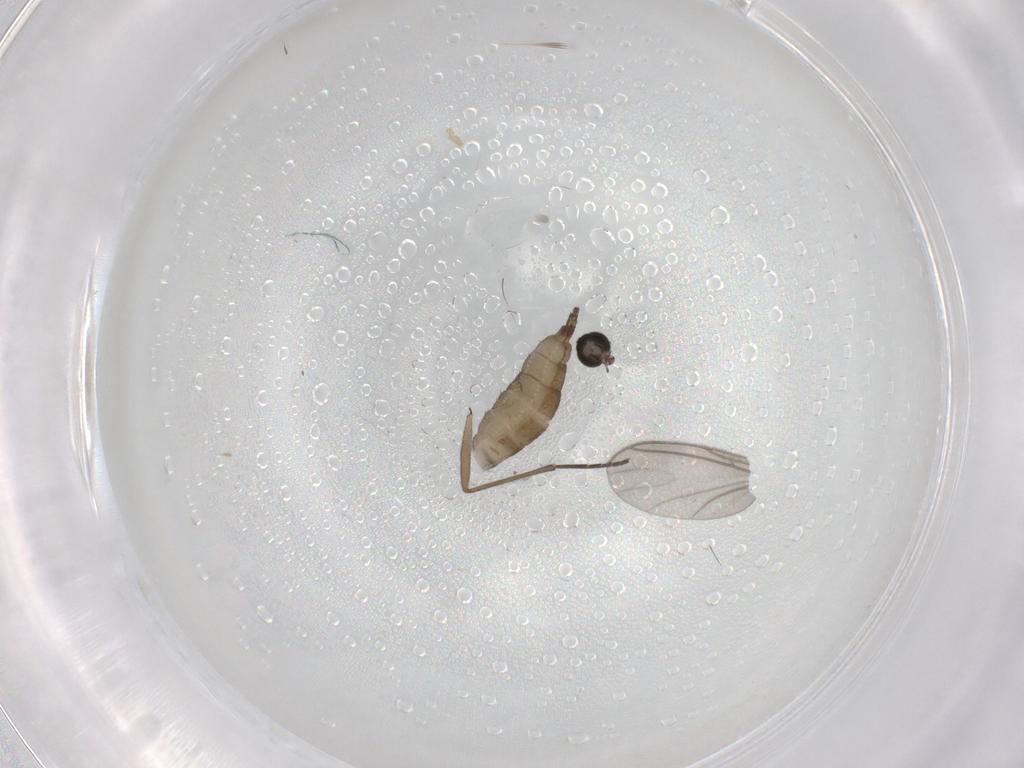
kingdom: Animalia
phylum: Arthropoda
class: Insecta
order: Diptera
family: Sciaridae
